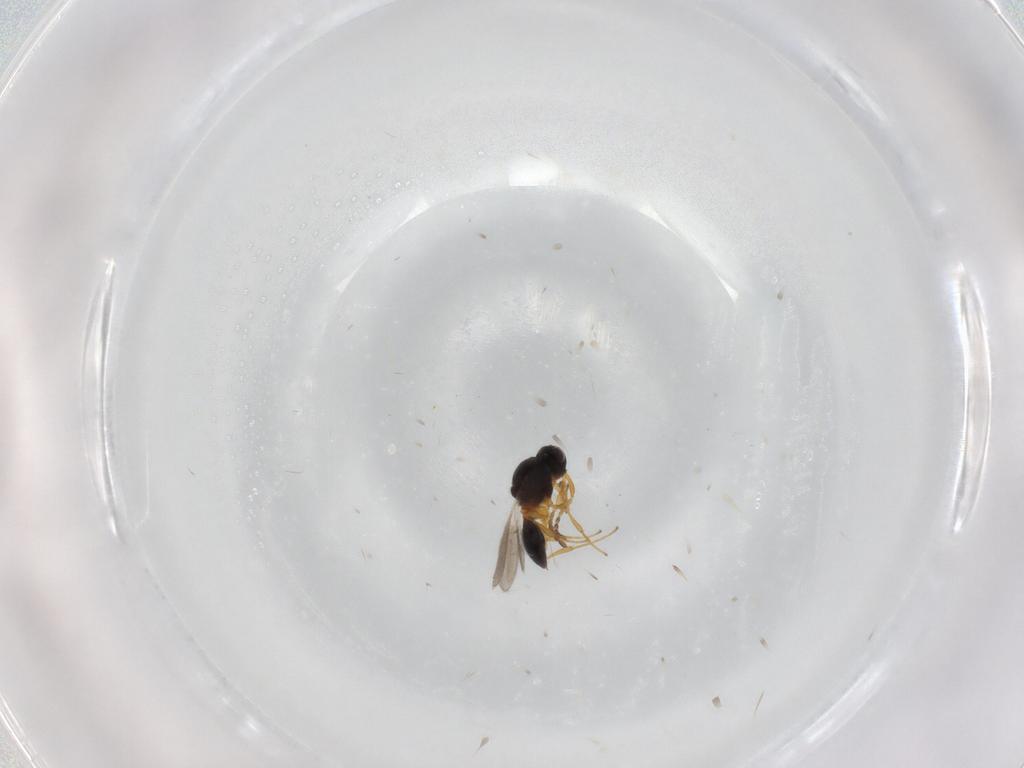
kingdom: Animalia
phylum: Arthropoda
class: Insecta
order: Hymenoptera
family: Platygastridae
